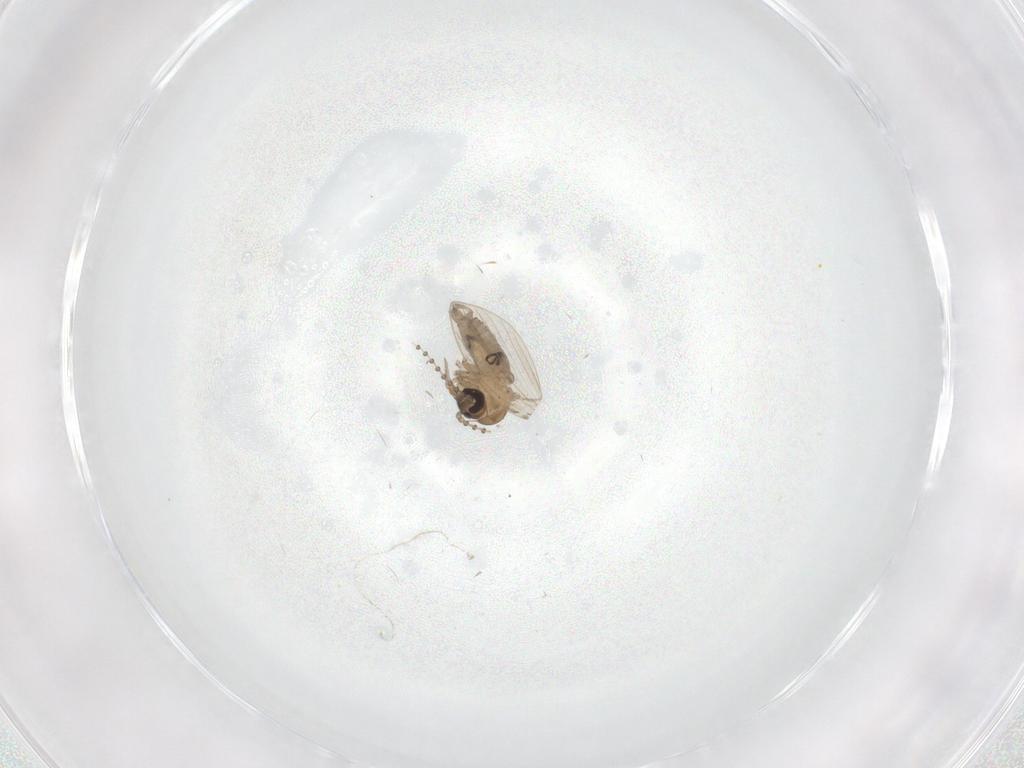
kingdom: Animalia
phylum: Arthropoda
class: Insecta
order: Diptera
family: Psychodidae
